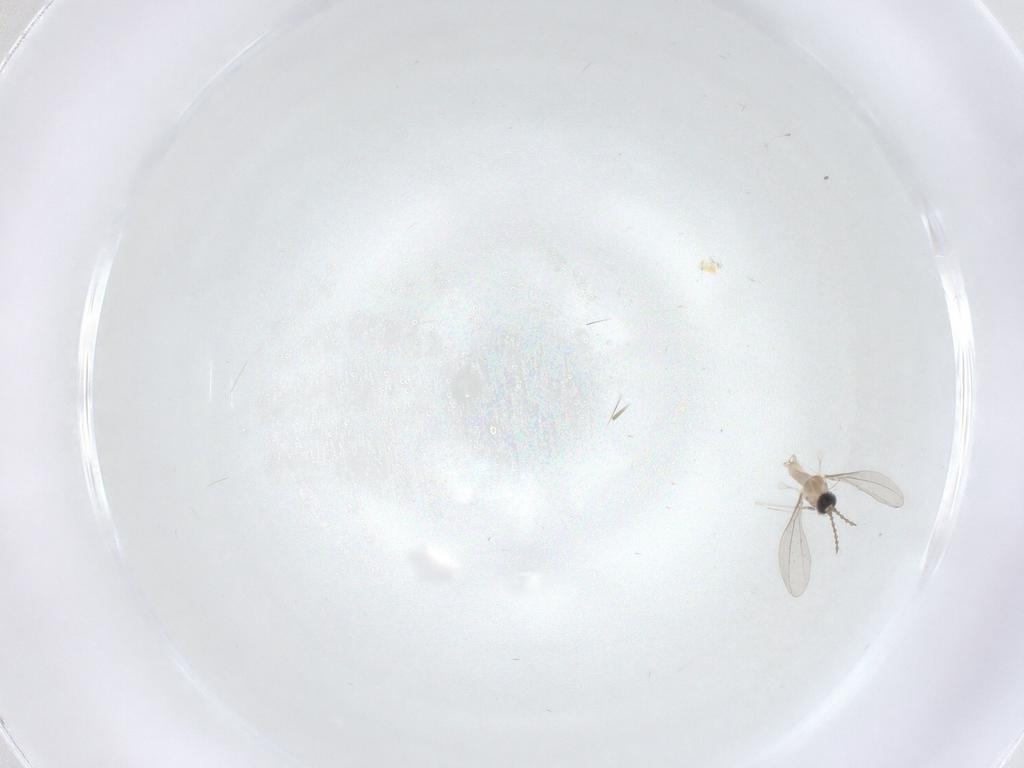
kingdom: Animalia
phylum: Arthropoda
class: Insecta
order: Diptera
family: Cecidomyiidae
